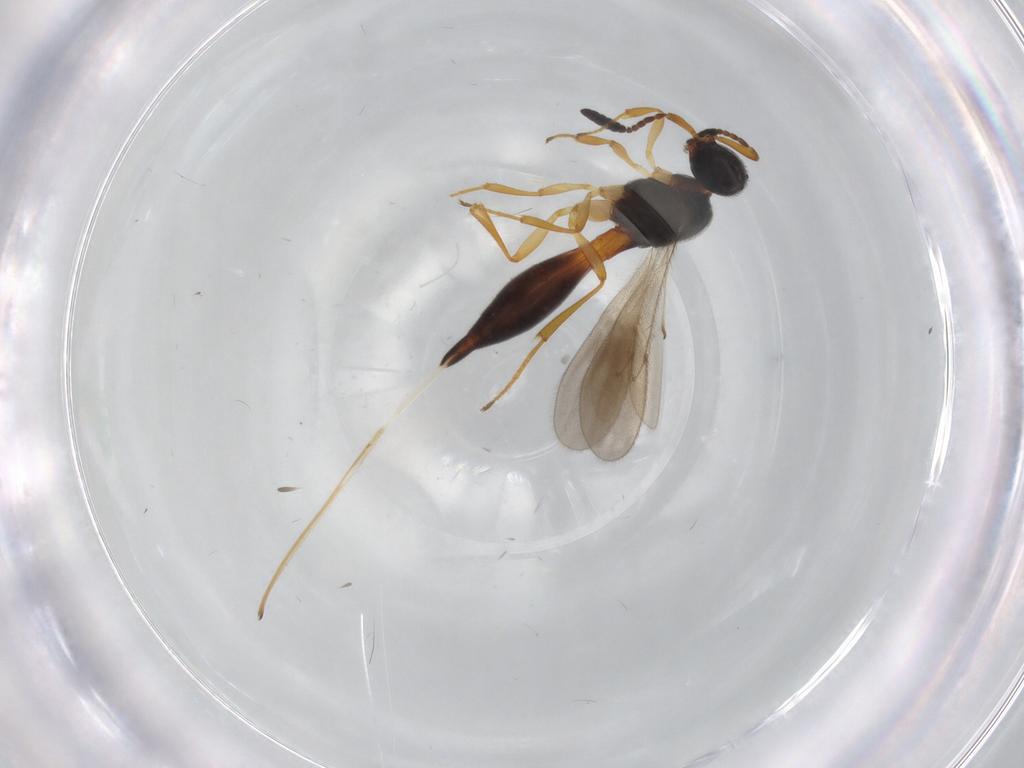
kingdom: Animalia
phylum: Arthropoda
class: Insecta
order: Hymenoptera
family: Scelionidae
